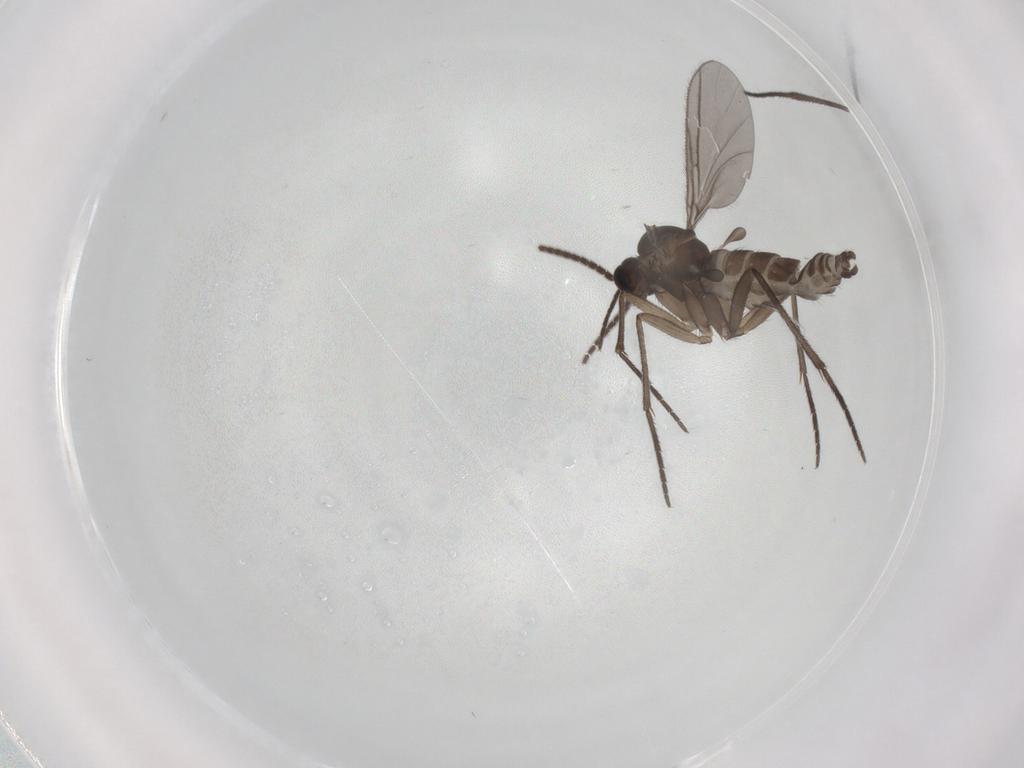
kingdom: Animalia
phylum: Arthropoda
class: Insecta
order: Diptera
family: Sciaridae
